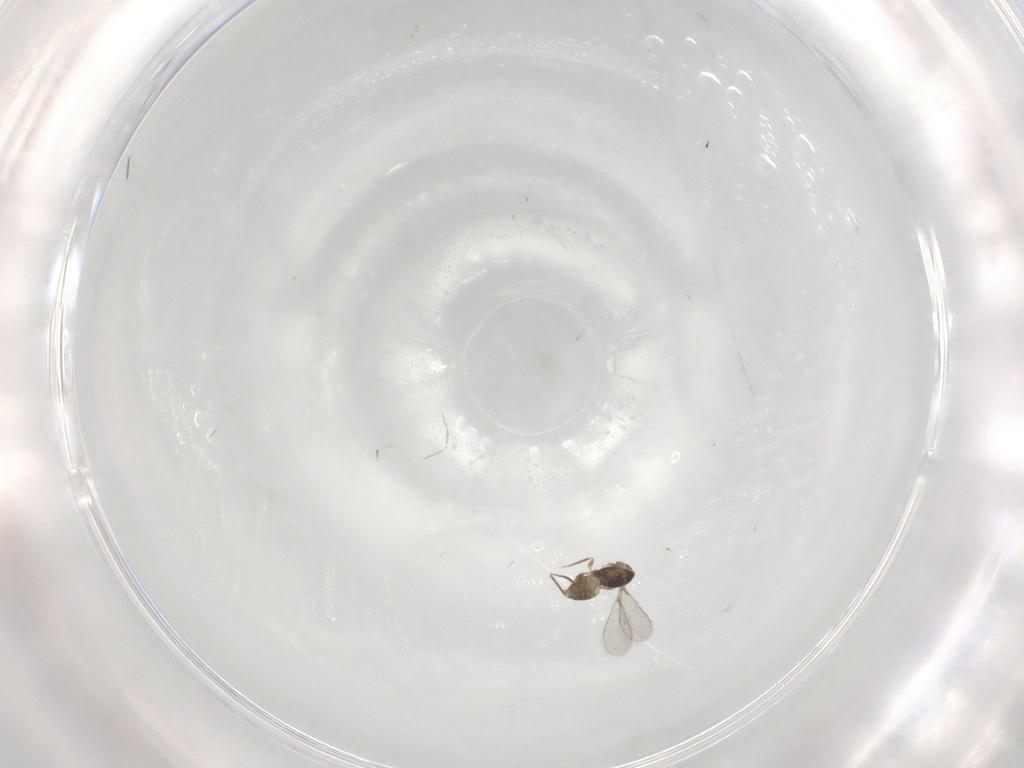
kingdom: Animalia
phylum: Arthropoda
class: Insecta
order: Hymenoptera
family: Mymaridae
